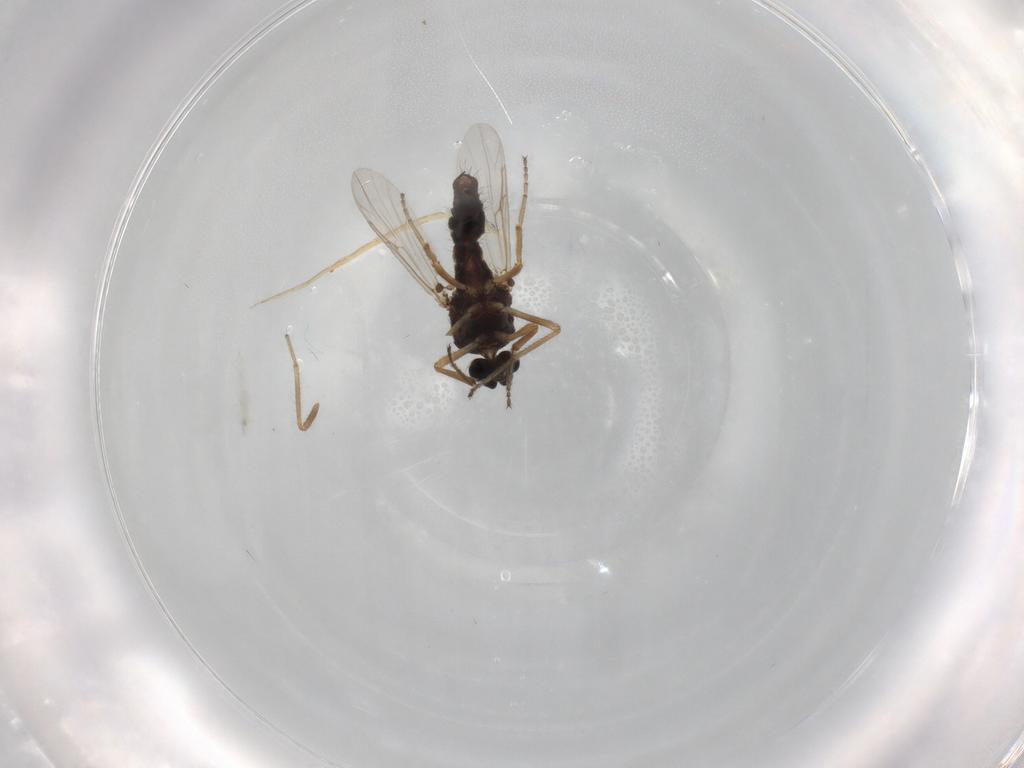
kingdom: Animalia
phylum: Arthropoda
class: Insecta
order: Diptera
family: Ceratopogonidae
